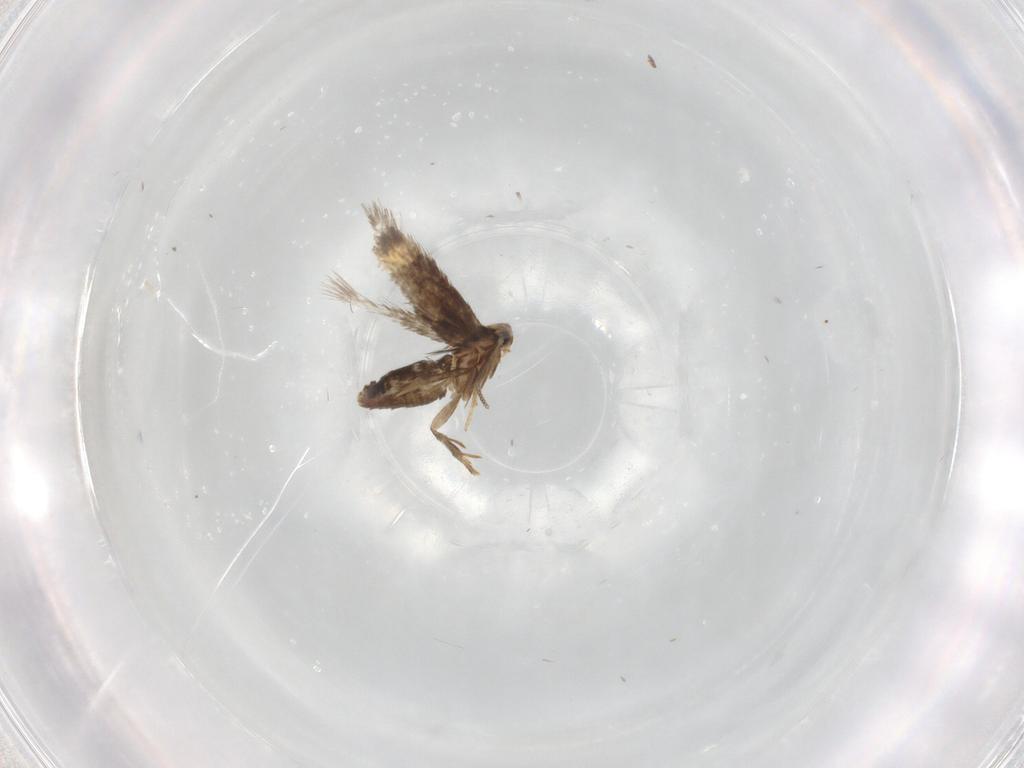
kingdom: Animalia
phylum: Arthropoda
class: Insecta
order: Lepidoptera
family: Nepticulidae
